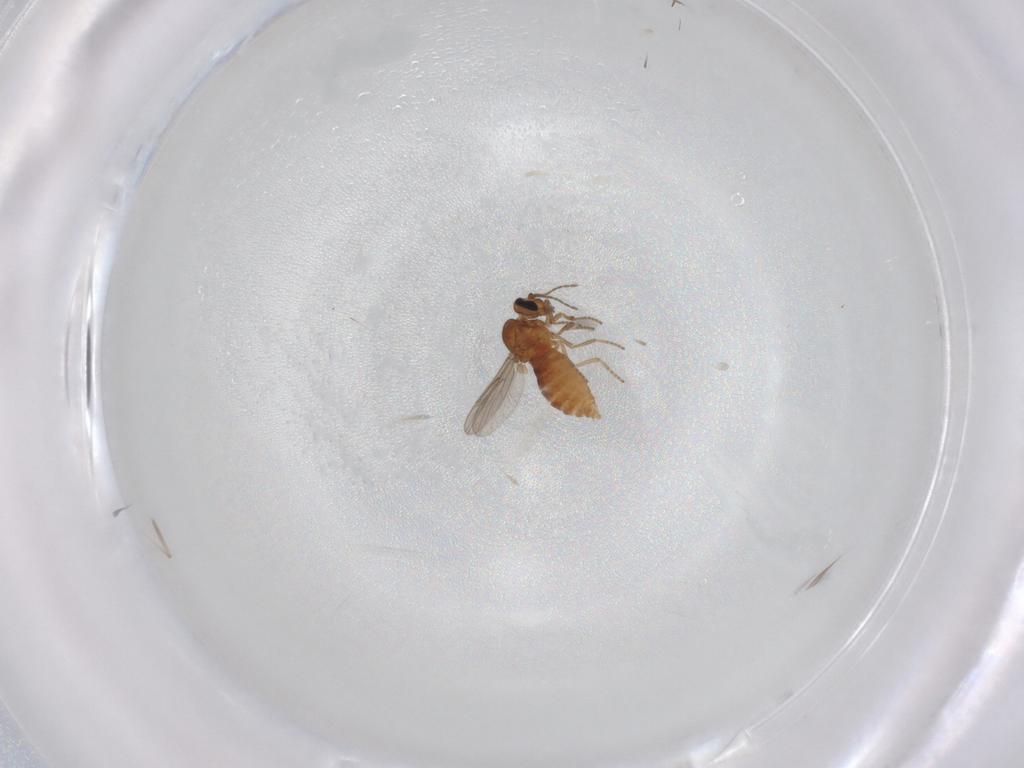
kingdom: Animalia
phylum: Arthropoda
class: Insecta
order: Diptera
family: Ceratopogonidae
